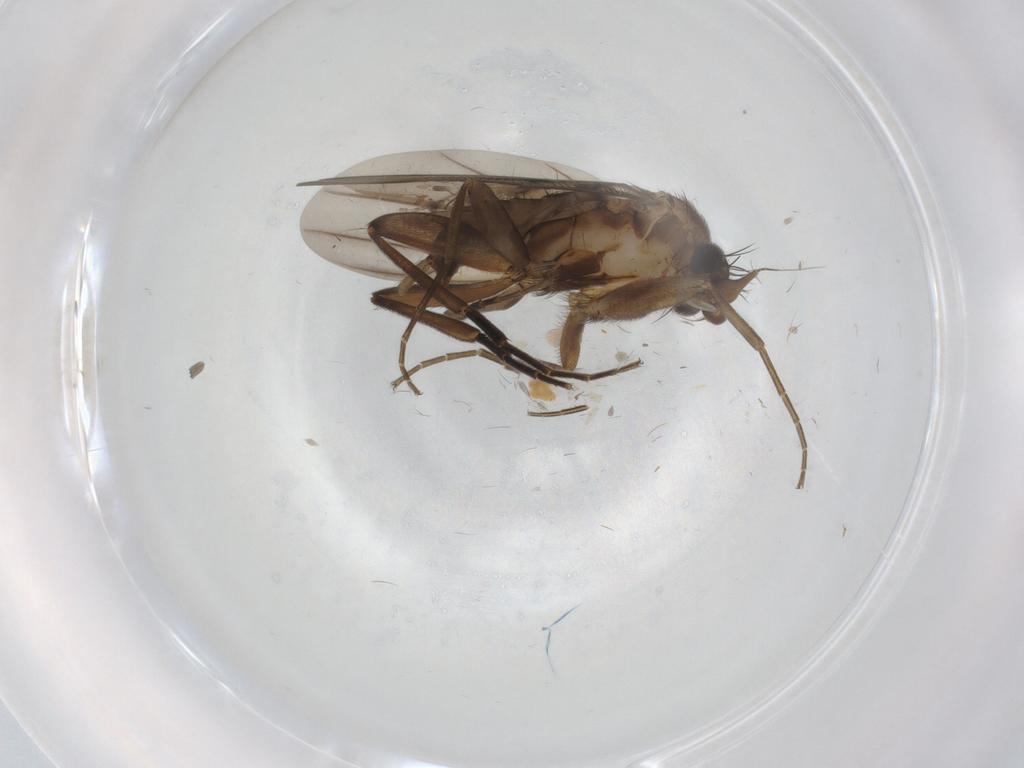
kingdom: Animalia
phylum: Arthropoda
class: Insecta
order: Diptera
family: Phoridae
